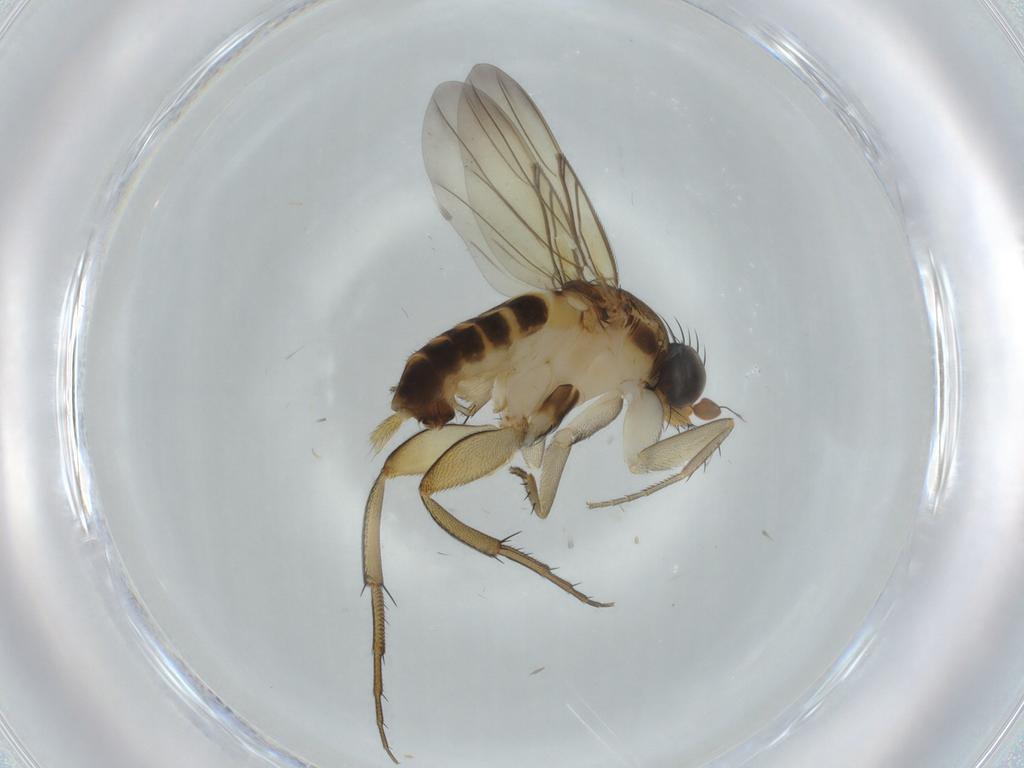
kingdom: Animalia
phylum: Arthropoda
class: Insecta
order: Diptera
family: Phoridae
